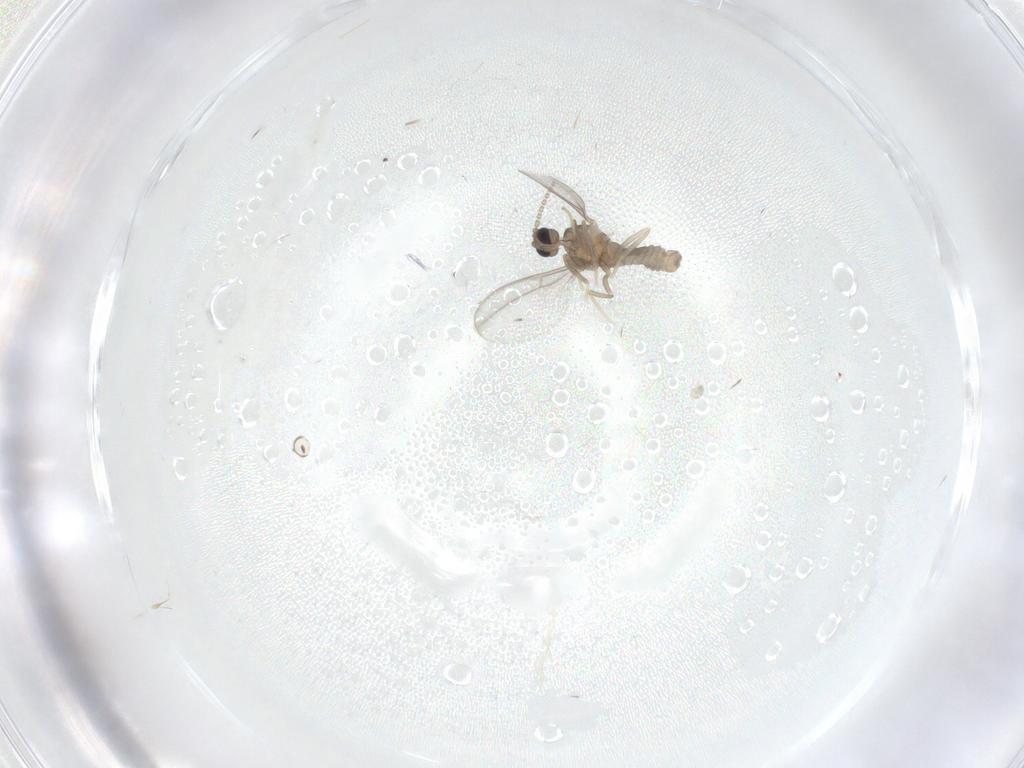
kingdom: Animalia
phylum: Arthropoda
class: Insecta
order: Diptera
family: Cecidomyiidae
